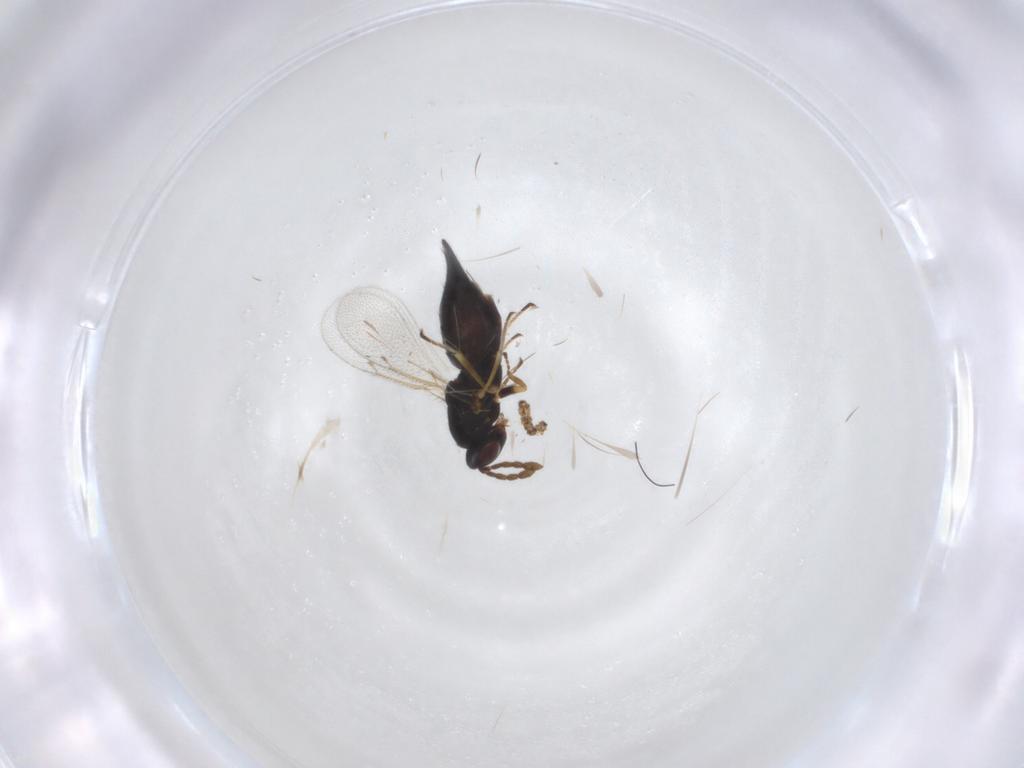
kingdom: Animalia
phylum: Arthropoda
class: Insecta
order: Hymenoptera
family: Eulophidae
